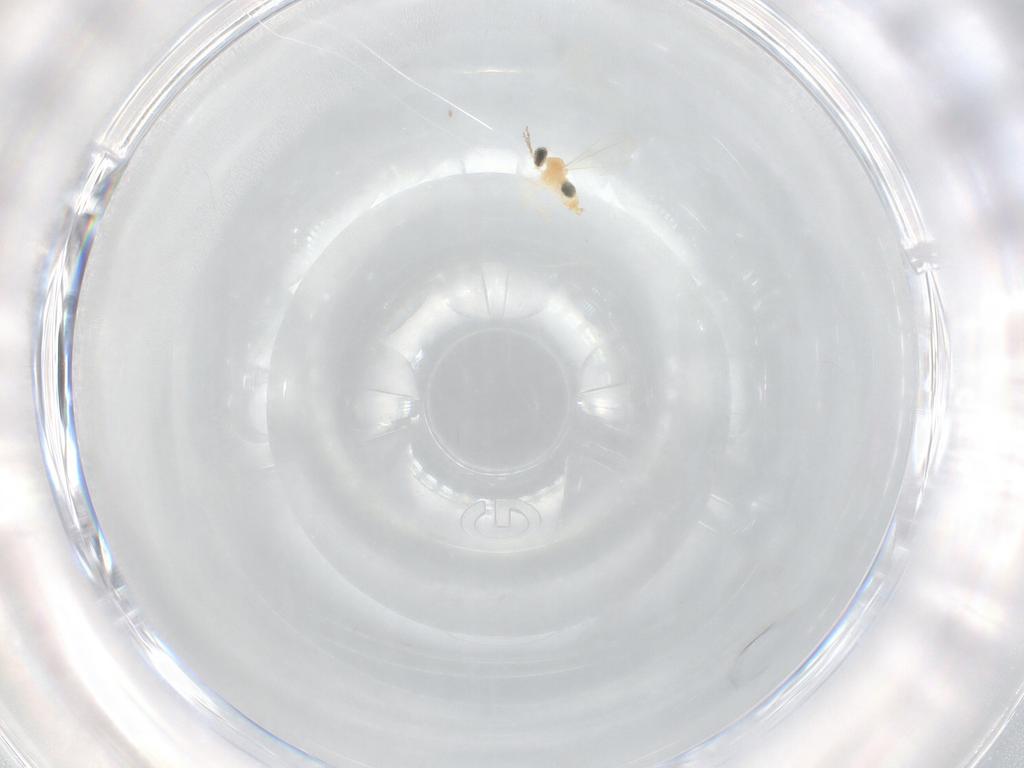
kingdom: Animalia
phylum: Arthropoda
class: Insecta
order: Diptera
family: Cecidomyiidae
